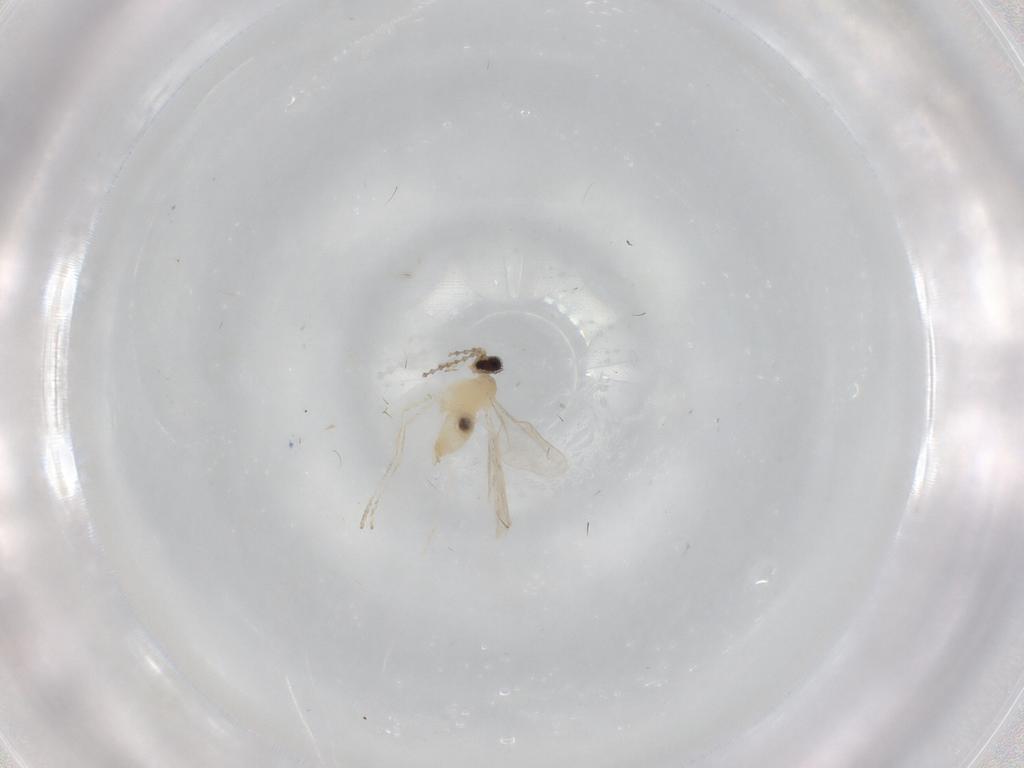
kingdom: Animalia
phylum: Arthropoda
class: Insecta
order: Diptera
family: Cecidomyiidae
